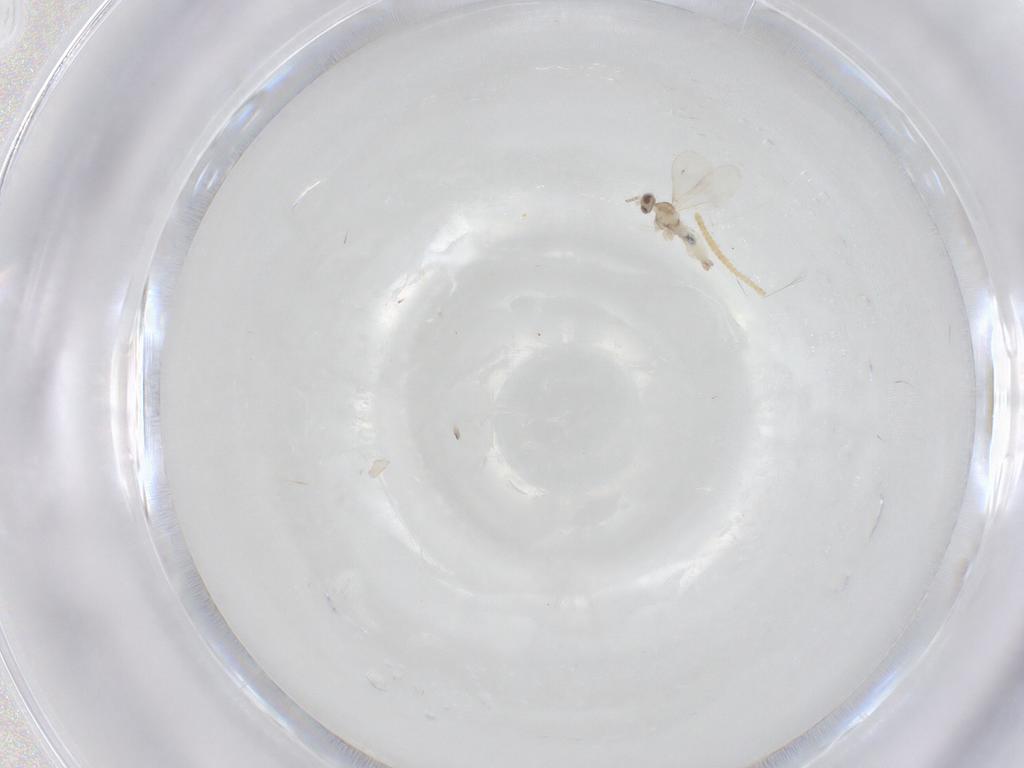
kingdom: Animalia
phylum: Arthropoda
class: Insecta
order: Diptera
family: Cecidomyiidae
